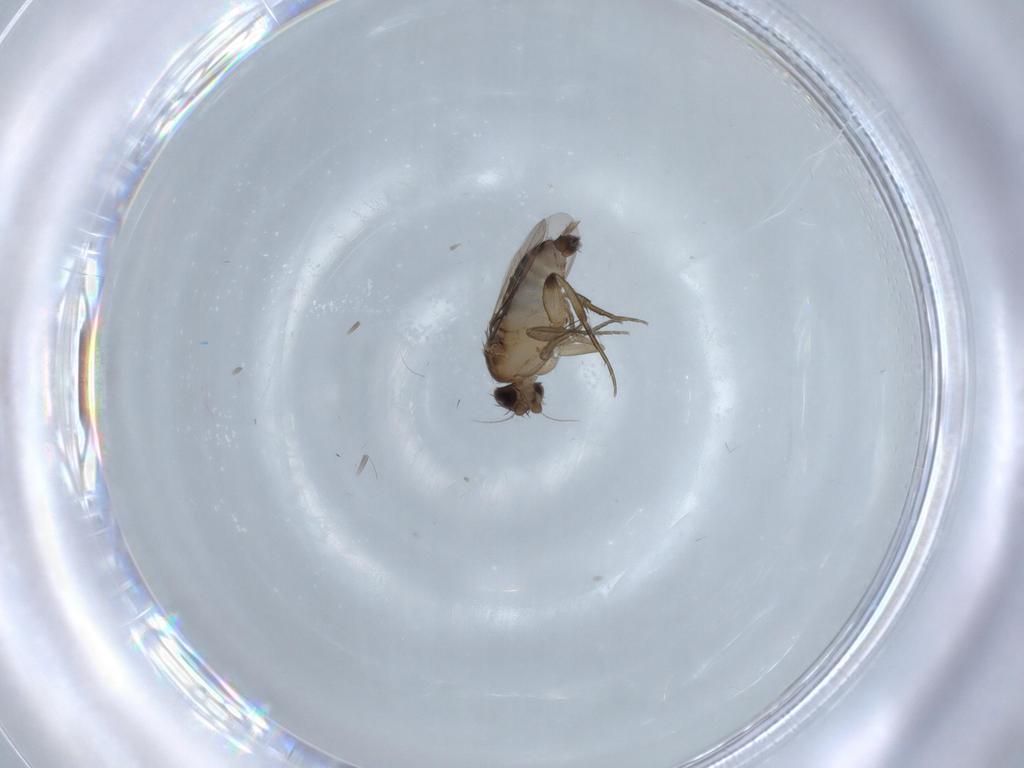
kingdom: Animalia
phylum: Arthropoda
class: Insecta
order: Diptera
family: Phoridae
